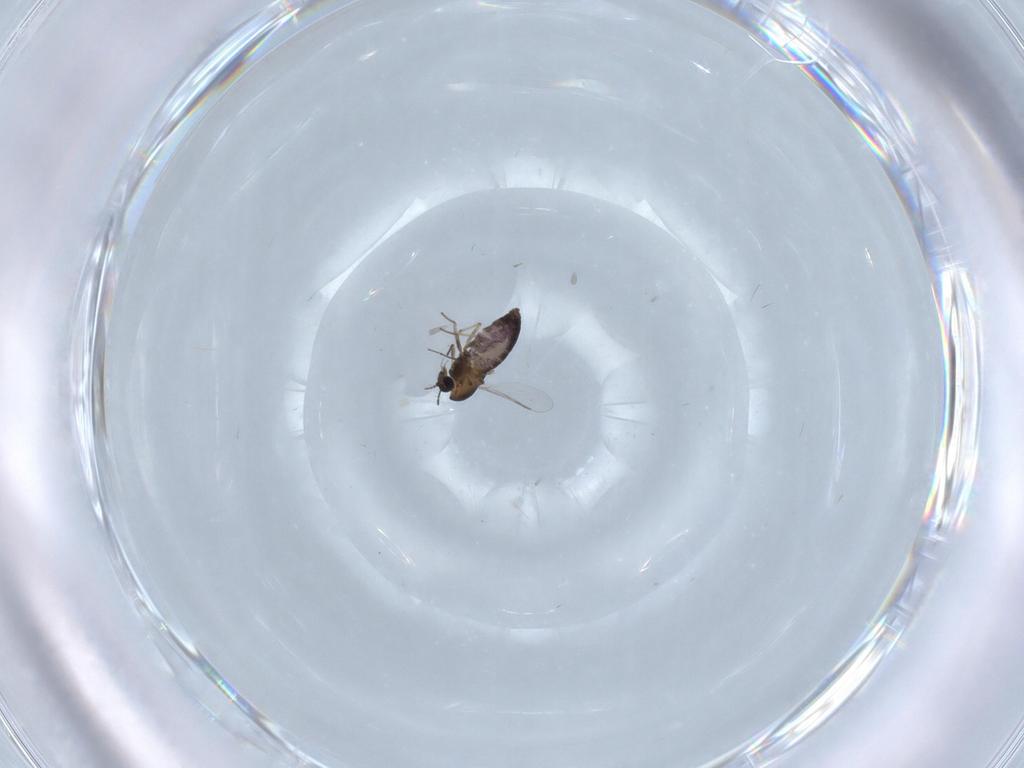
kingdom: Animalia
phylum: Arthropoda
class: Insecta
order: Diptera
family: Chironomidae
